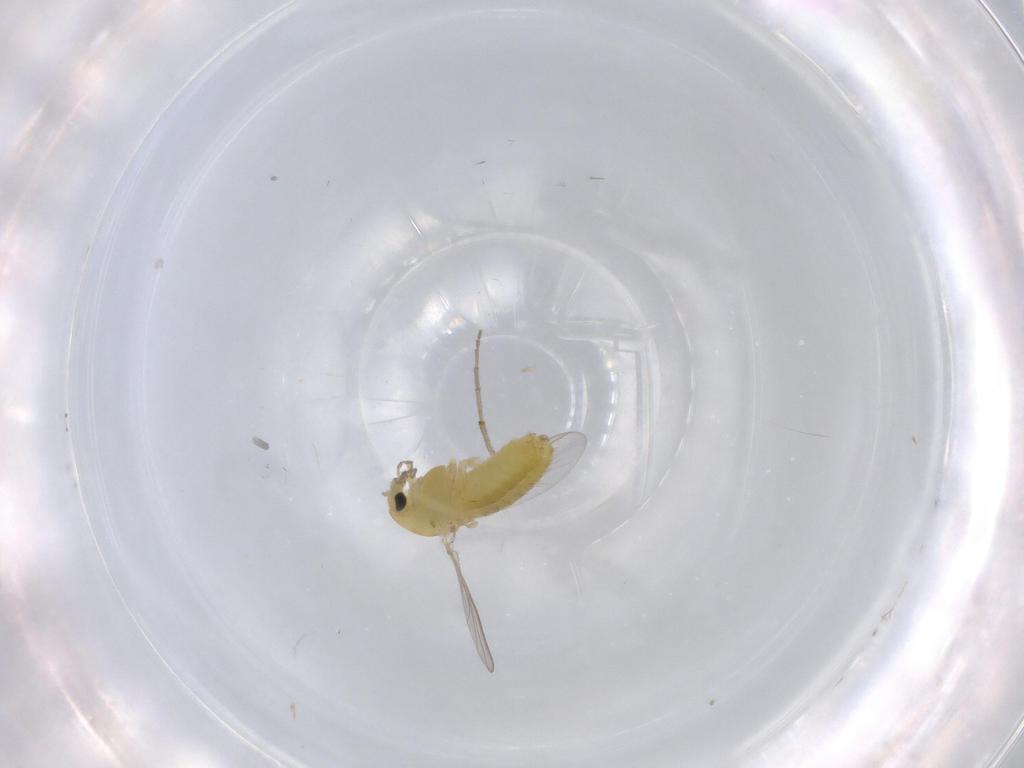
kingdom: Animalia
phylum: Arthropoda
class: Insecta
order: Diptera
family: Chironomidae
